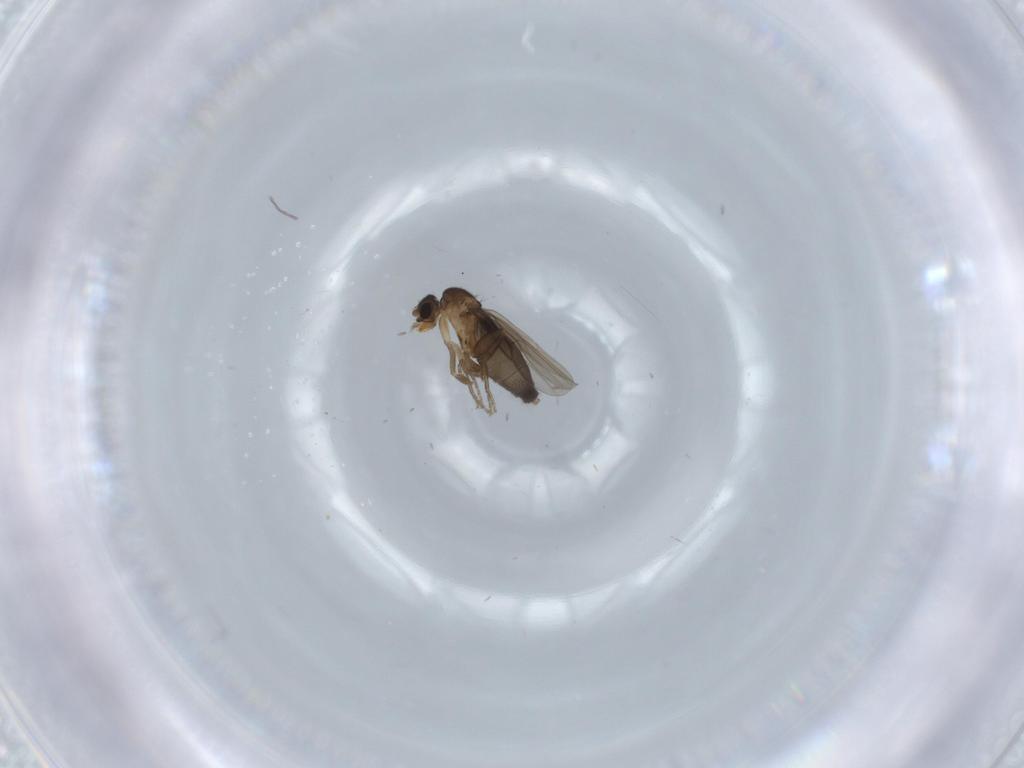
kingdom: Animalia
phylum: Arthropoda
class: Insecta
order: Diptera
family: Phoridae
